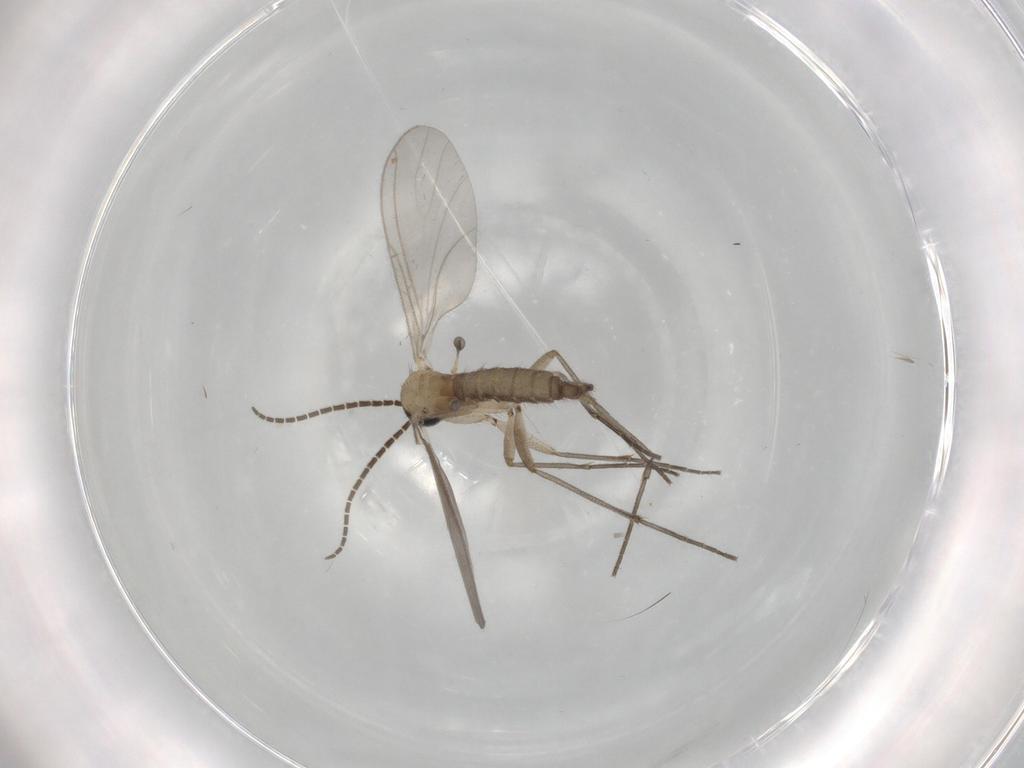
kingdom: Animalia
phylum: Arthropoda
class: Insecta
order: Diptera
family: Sciaridae
